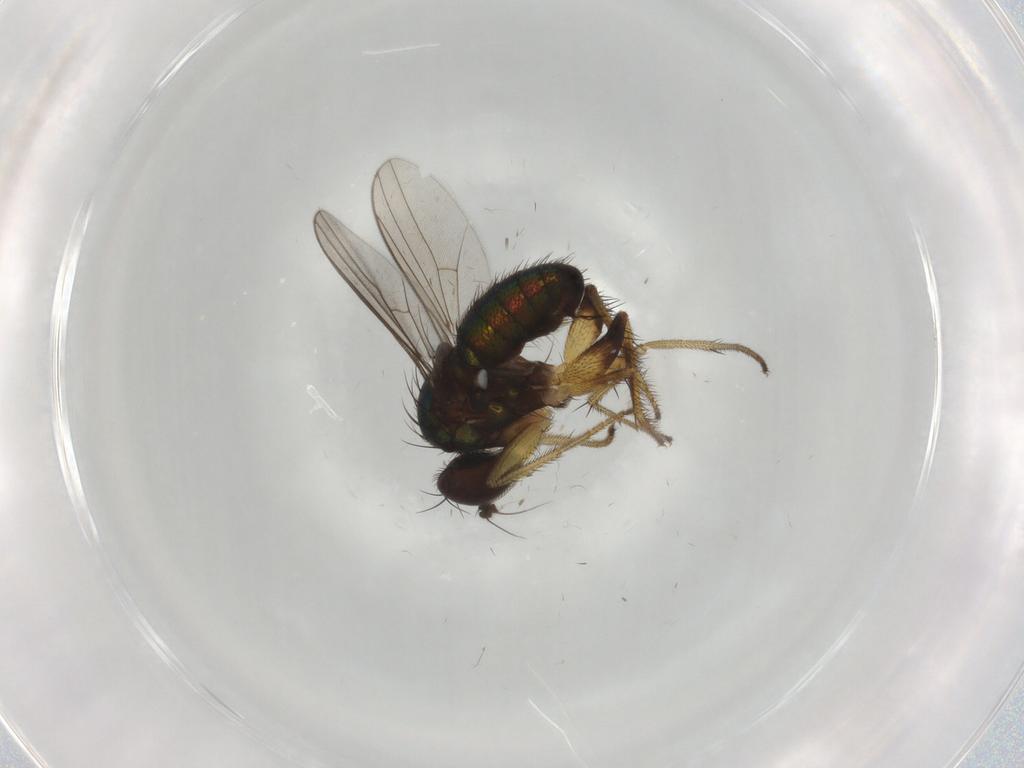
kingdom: Animalia
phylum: Arthropoda
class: Insecta
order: Diptera
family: Dolichopodidae
